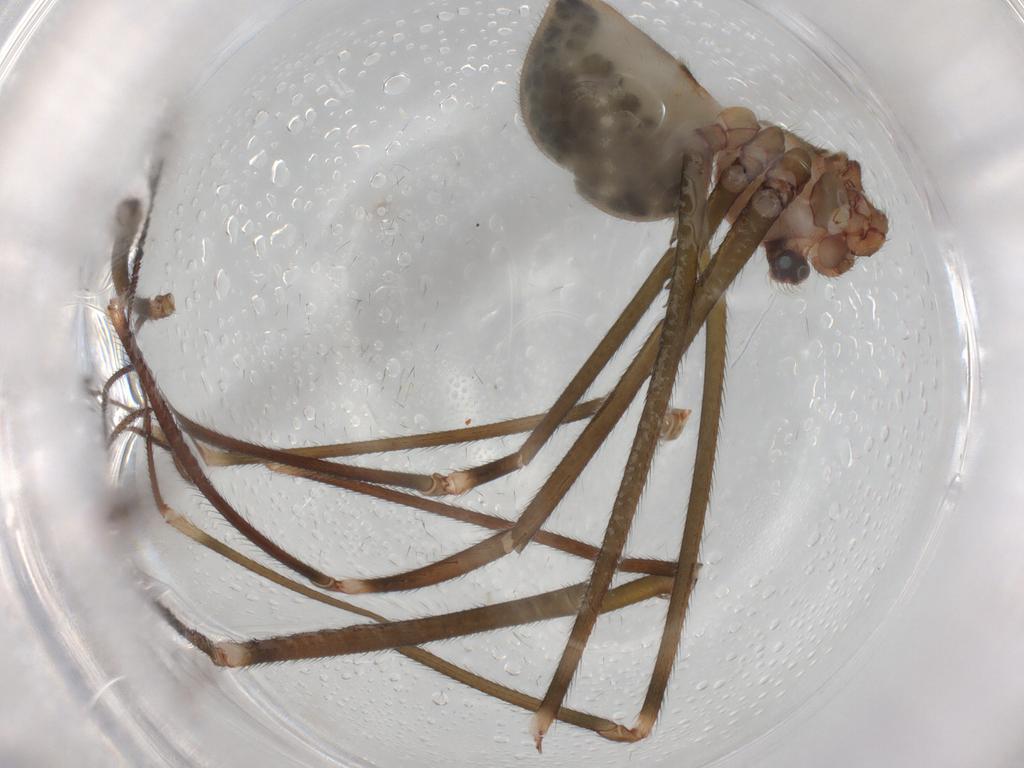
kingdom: Animalia
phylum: Arthropoda
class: Arachnida
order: Araneae
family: Pholcidae
